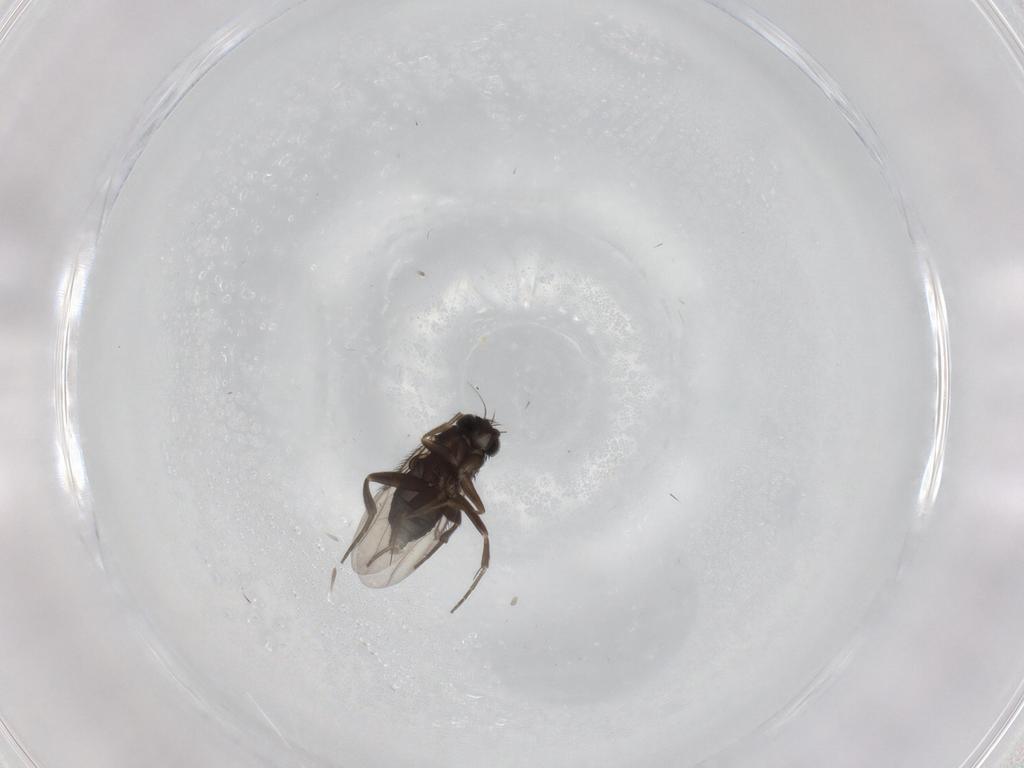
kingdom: Animalia
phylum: Arthropoda
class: Insecta
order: Diptera
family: Phoridae
